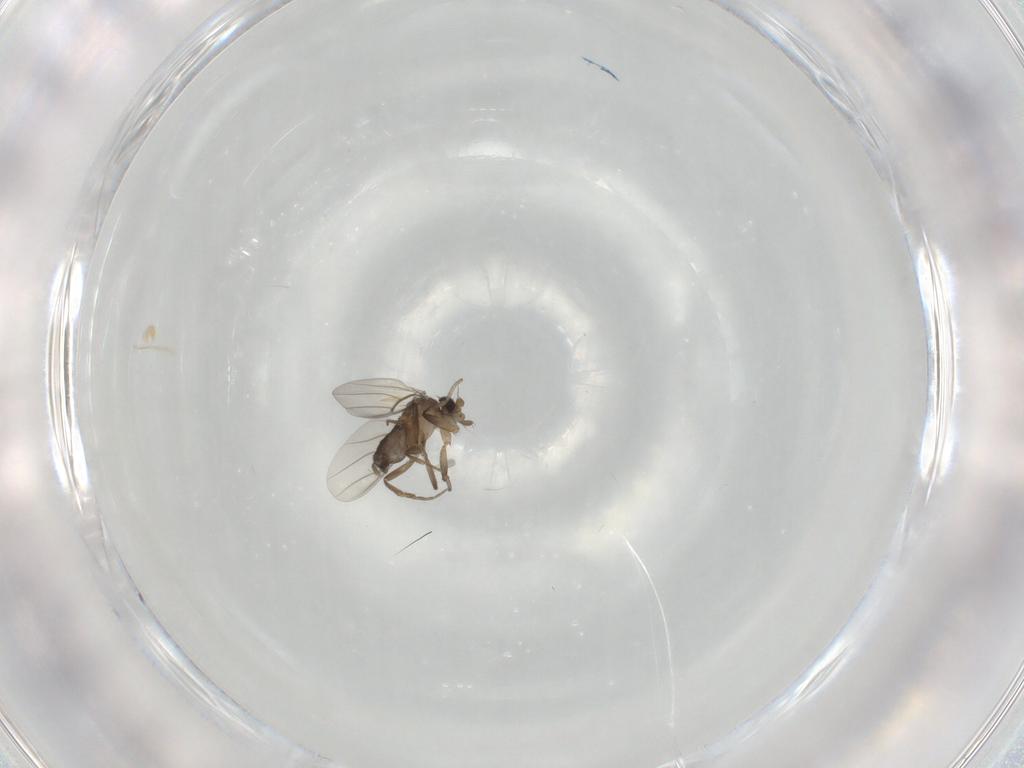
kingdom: Animalia
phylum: Arthropoda
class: Insecta
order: Diptera
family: Phoridae
